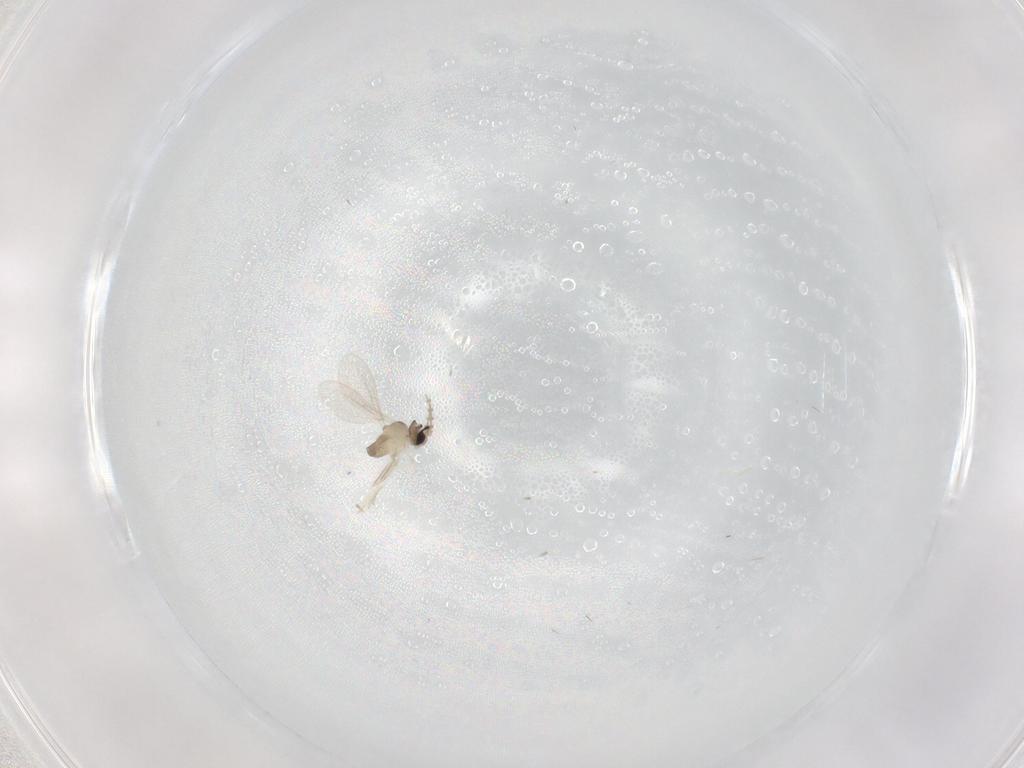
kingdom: Animalia
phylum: Arthropoda
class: Insecta
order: Diptera
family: Cecidomyiidae
